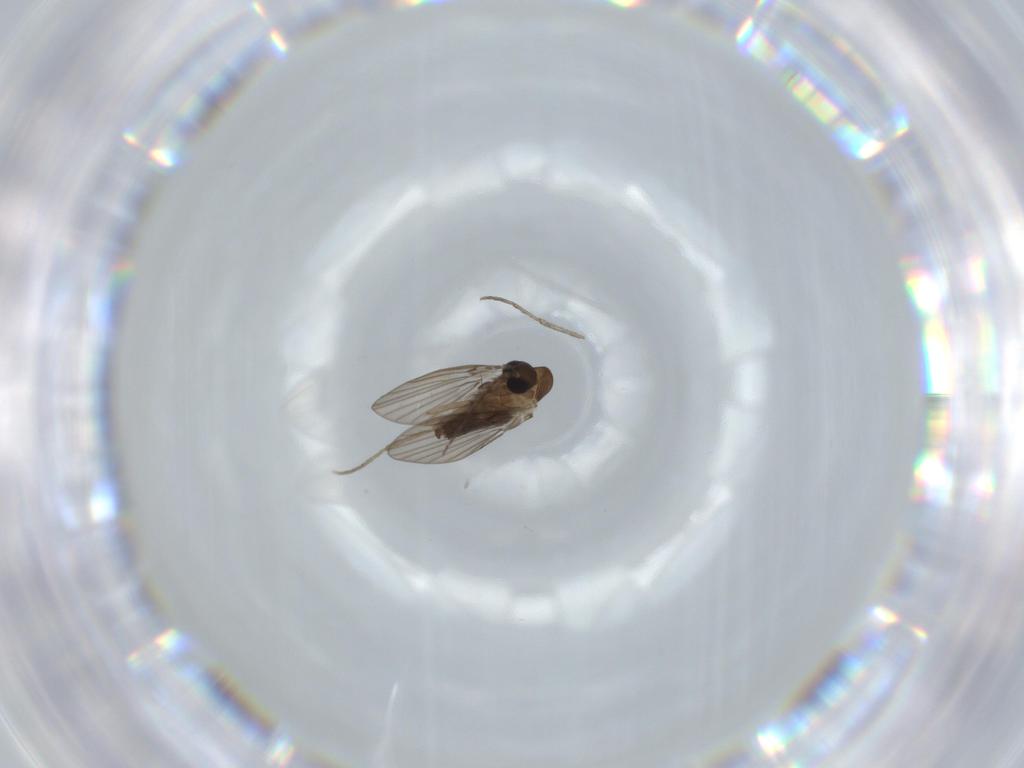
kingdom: Animalia
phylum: Arthropoda
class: Insecta
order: Diptera
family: Psychodidae
